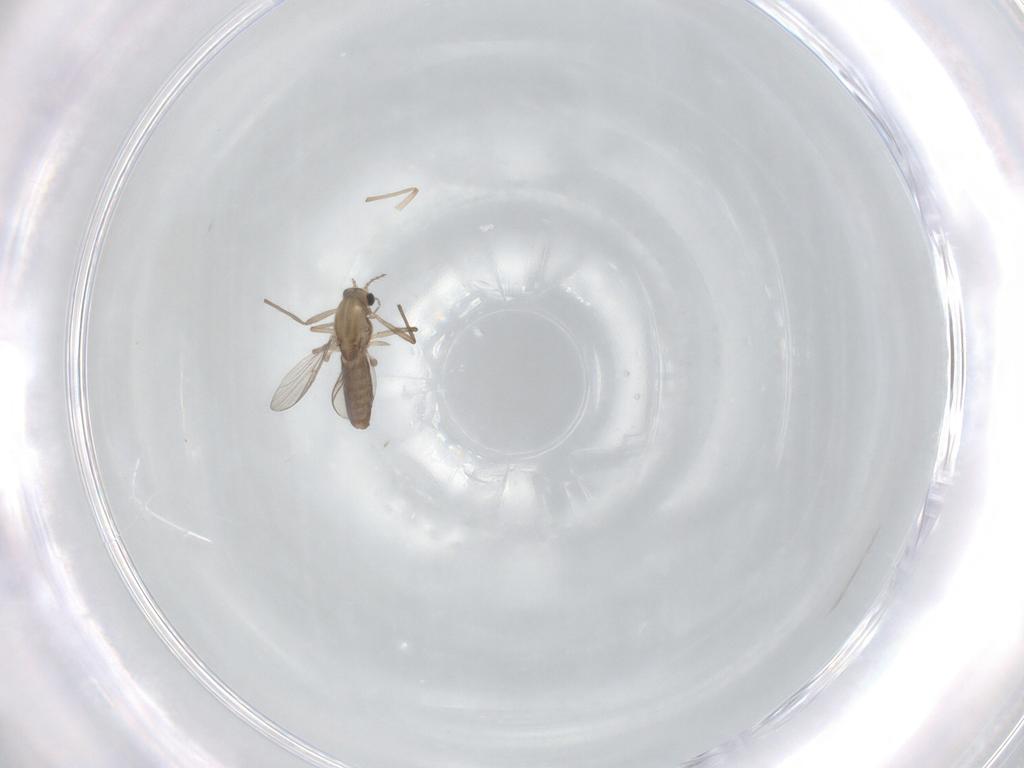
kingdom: Animalia
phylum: Arthropoda
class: Insecta
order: Diptera
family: Chironomidae
